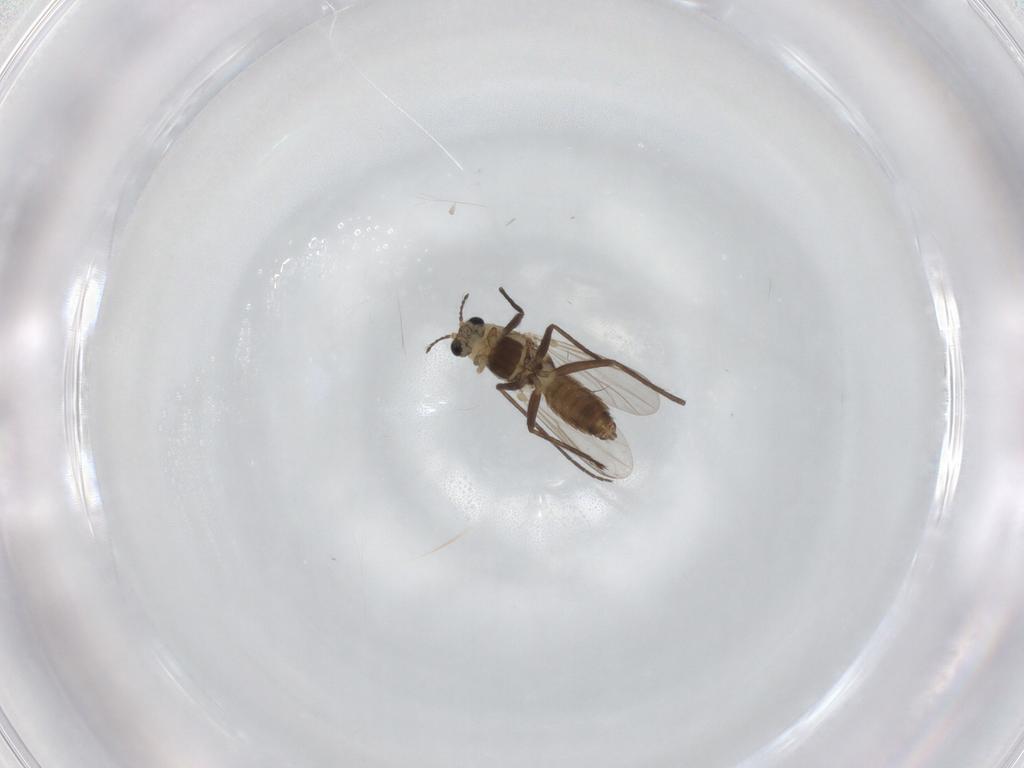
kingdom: Animalia
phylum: Arthropoda
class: Insecta
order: Diptera
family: Chironomidae
